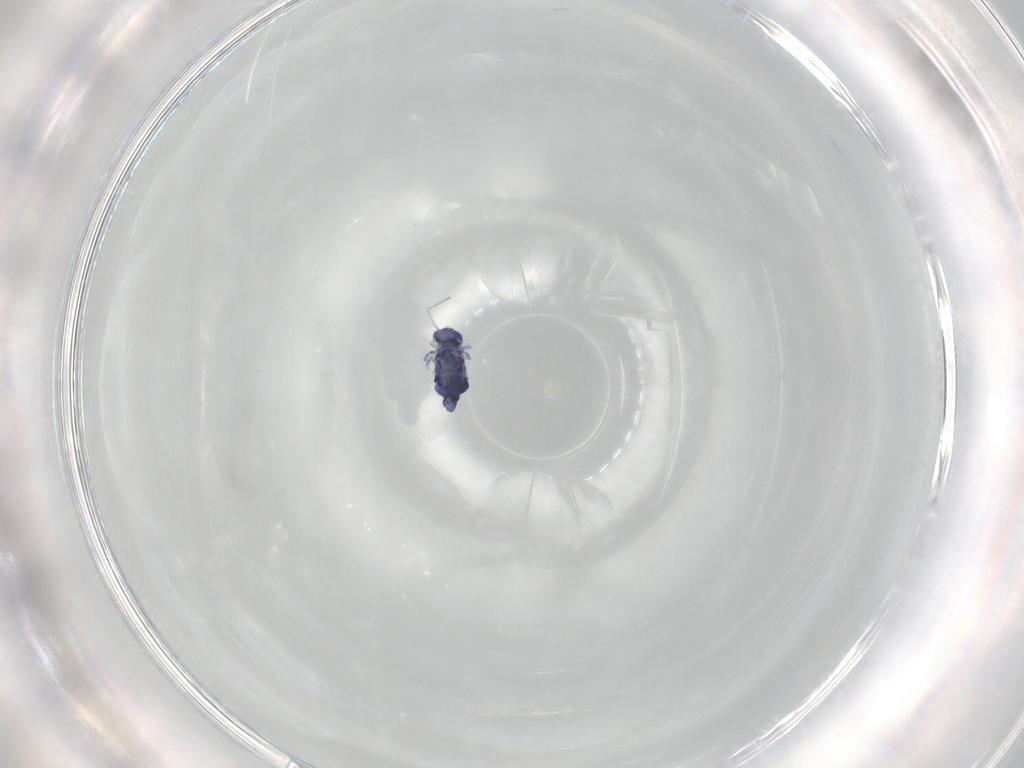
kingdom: Animalia
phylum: Arthropoda
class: Collembola
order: Symphypleona
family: Bourletiellidae
